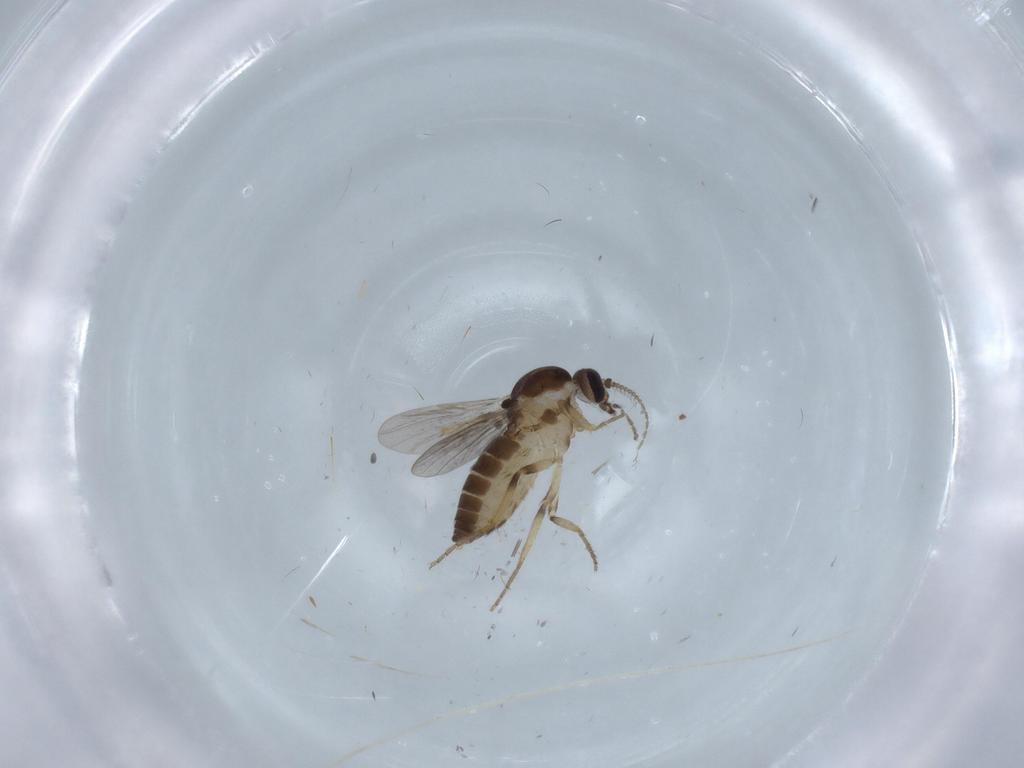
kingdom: Animalia
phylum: Arthropoda
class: Insecta
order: Diptera
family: Ceratopogonidae
